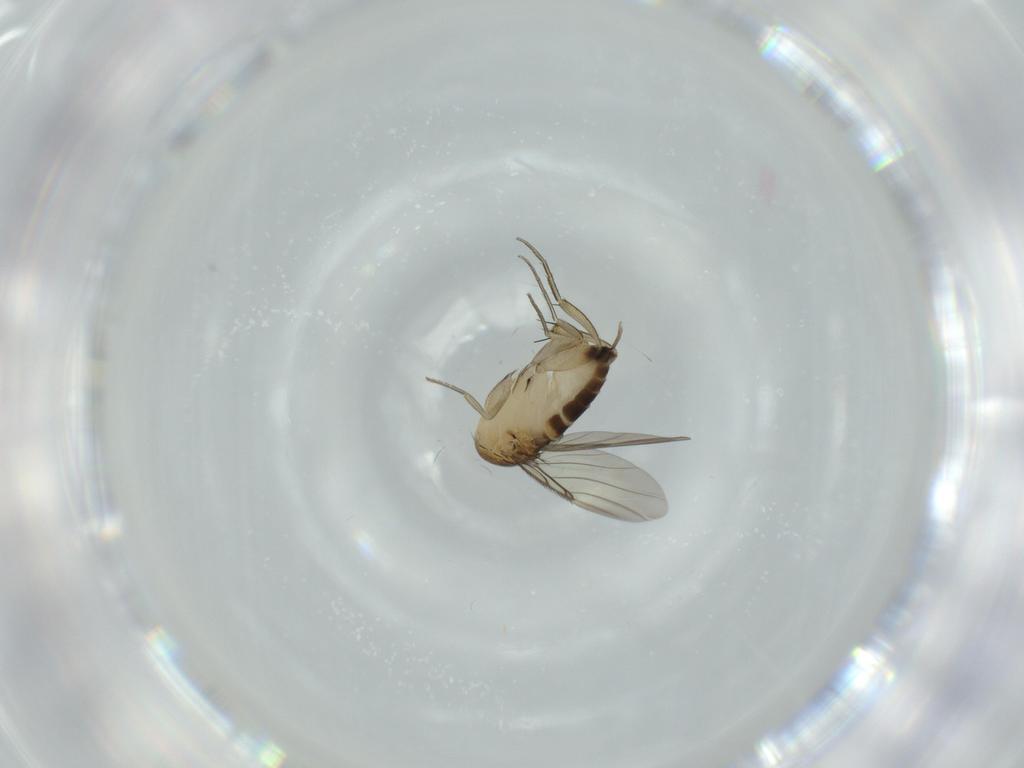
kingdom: Animalia
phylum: Arthropoda
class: Insecta
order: Diptera
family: Phoridae
